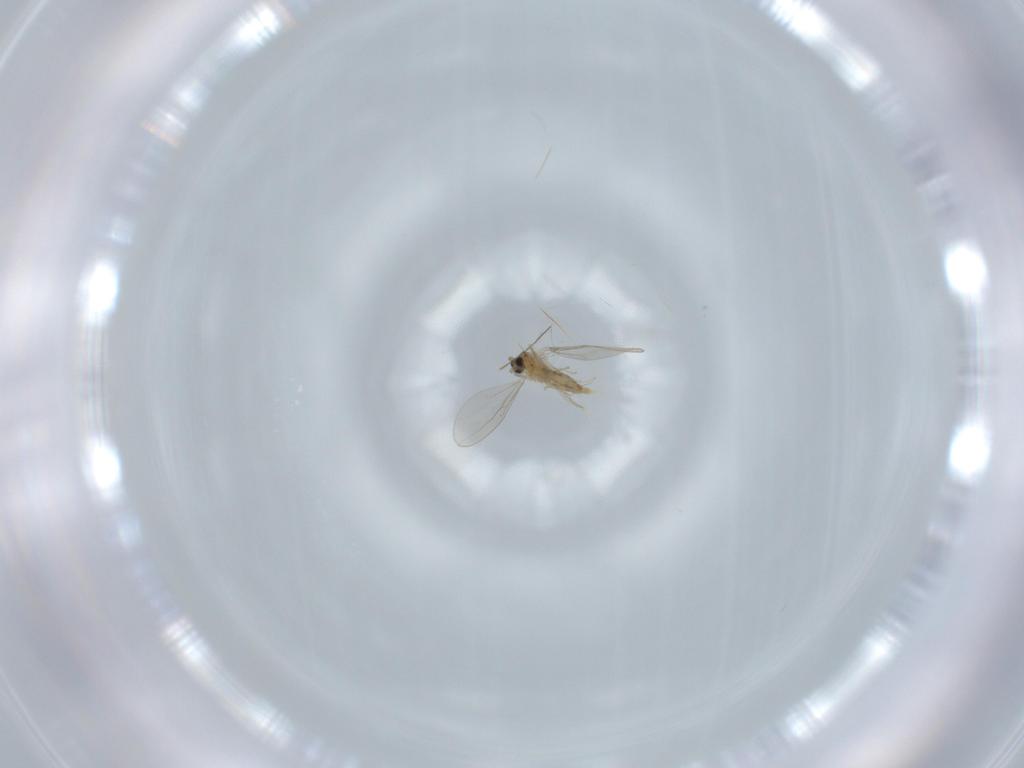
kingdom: Animalia
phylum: Arthropoda
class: Insecta
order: Diptera
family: Cecidomyiidae
